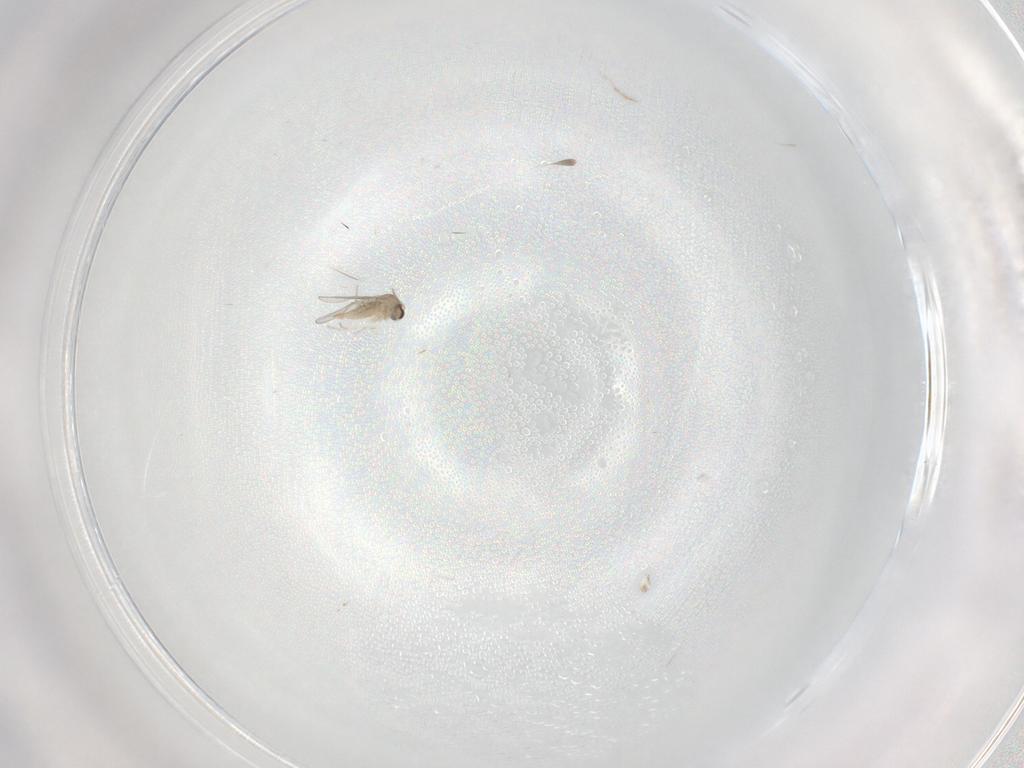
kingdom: Animalia
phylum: Arthropoda
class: Insecta
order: Diptera
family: Cecidomyiidae
